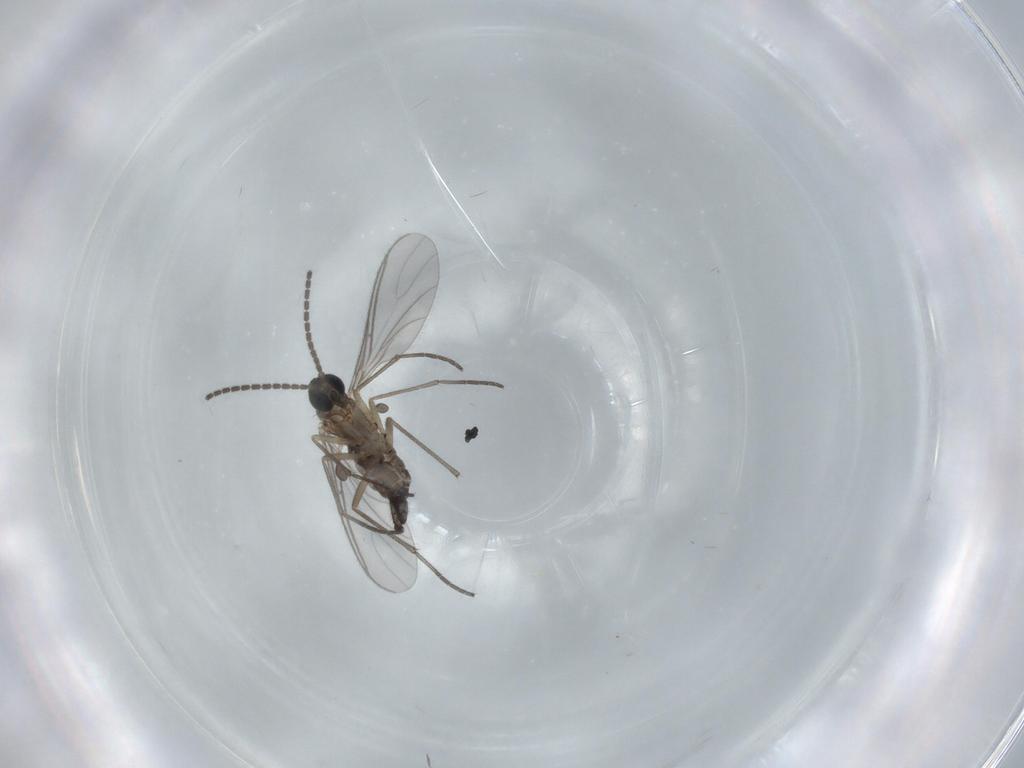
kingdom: Animalia
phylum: Arthropoda
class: Insecta
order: Diptera
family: Sciaridae
